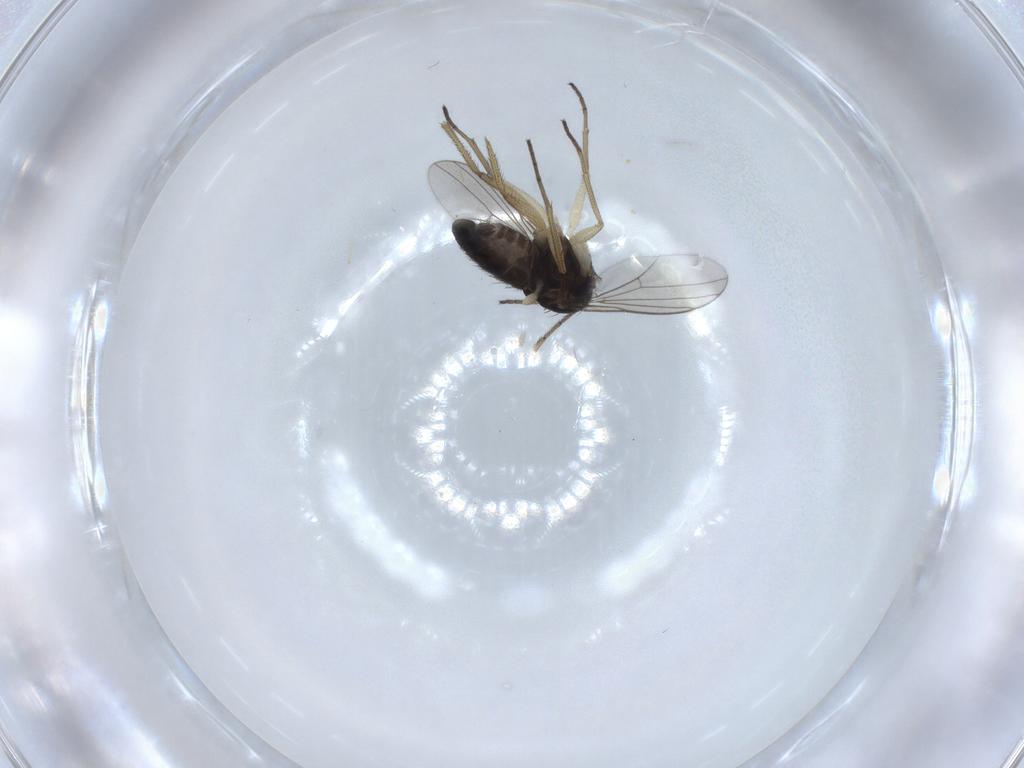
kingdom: Animalia
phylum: Arthropoda
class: Insecta
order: Diptera
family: Dolichopodidae
